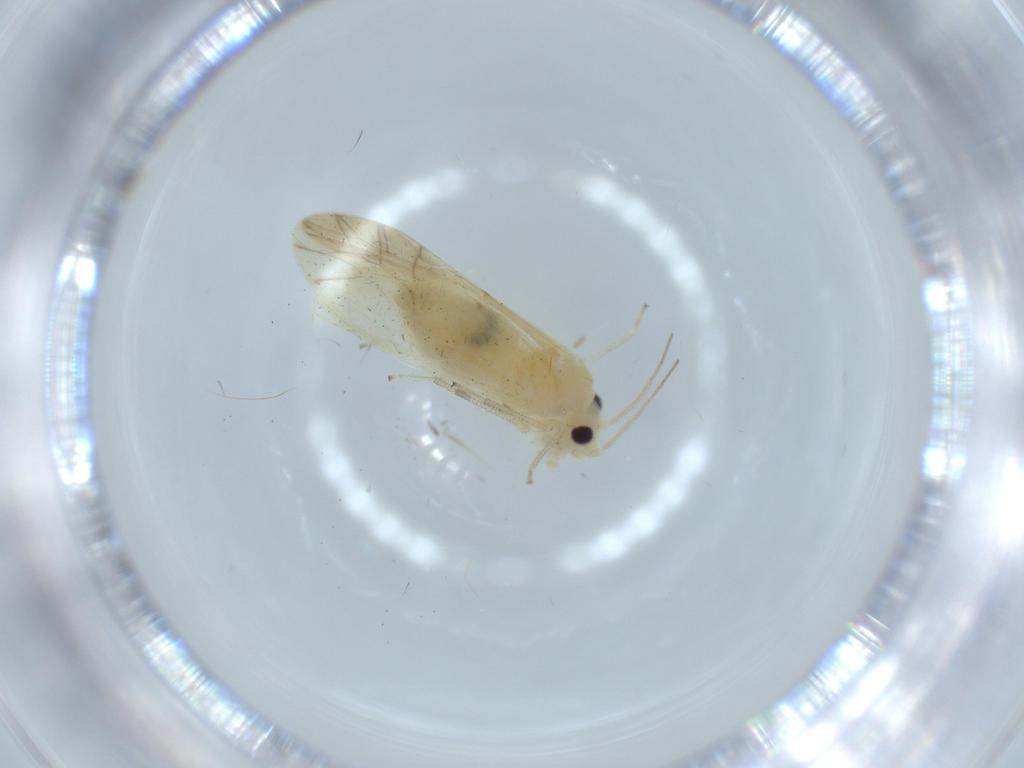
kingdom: Animalia
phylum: Arthropoda
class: Insecta
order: Psocodea
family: Caeciliusidae
